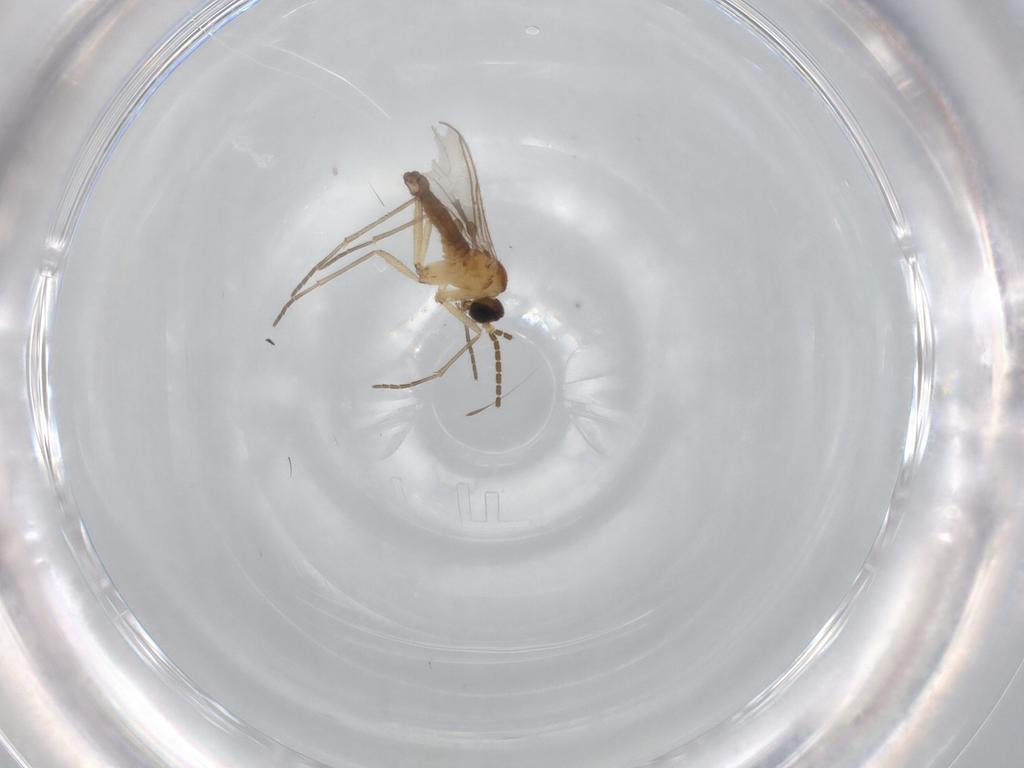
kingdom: Animalia
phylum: Arthropoda
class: Insecta
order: Diptera
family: Sciaridae
